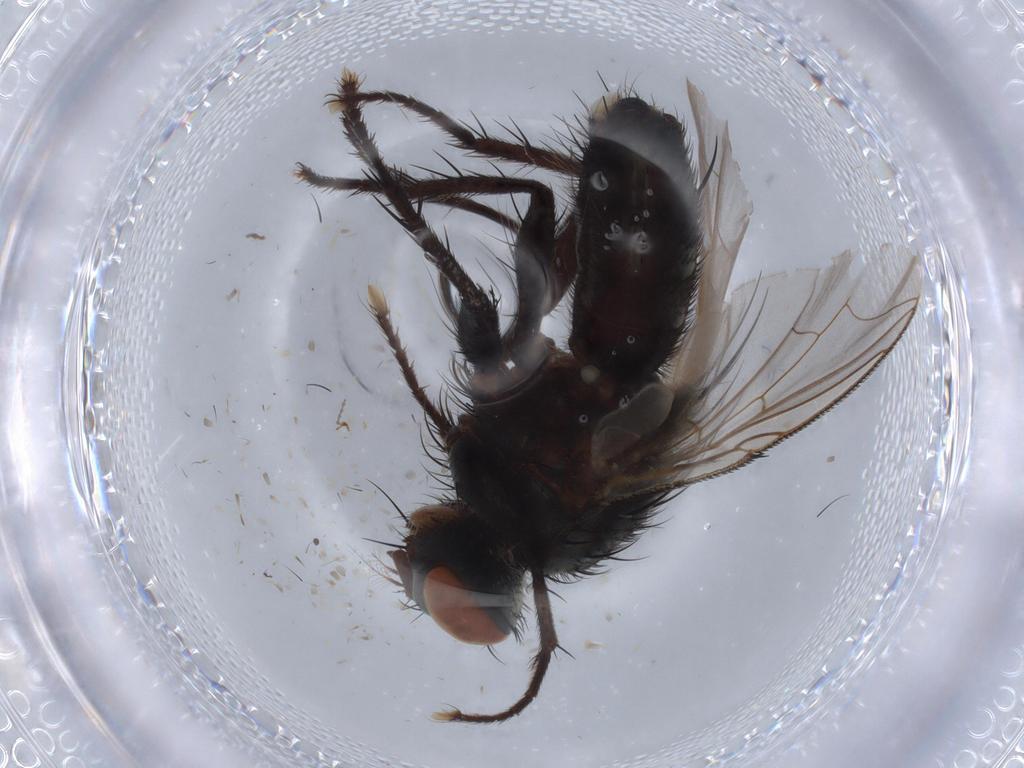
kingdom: Animalia
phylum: Arthropoda
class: Insecta
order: Diptera
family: Sarcophagidae
